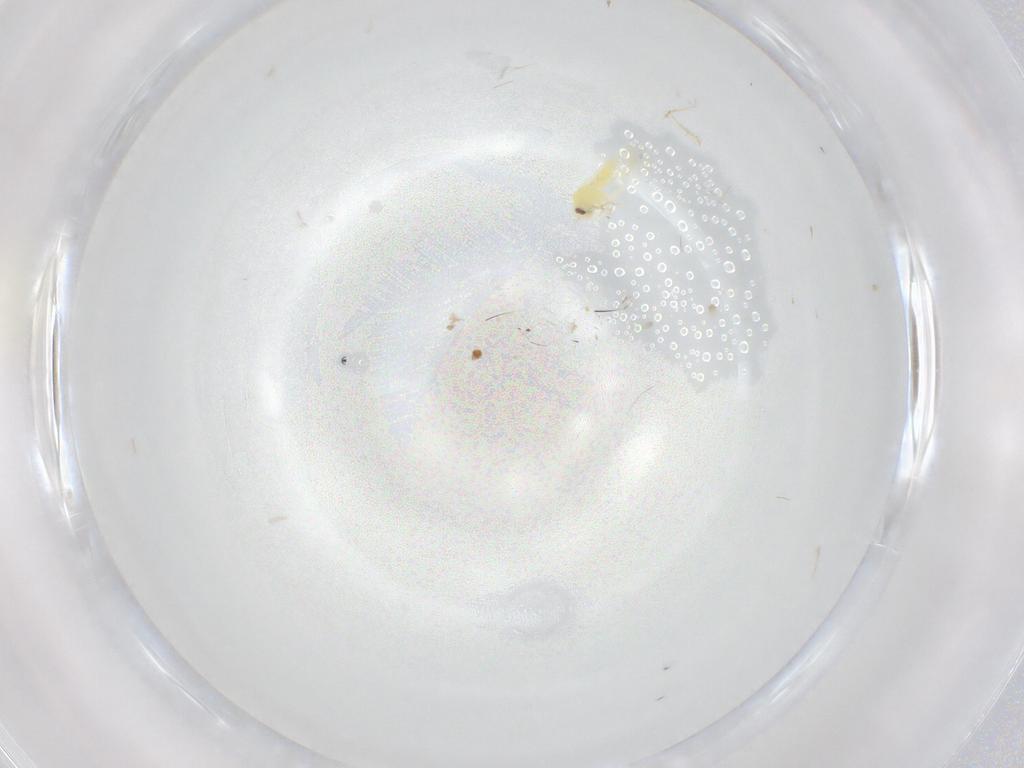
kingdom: Animalia
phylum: Arthropoda
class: Insecta
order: Hemiptera
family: Aleyrodidae
